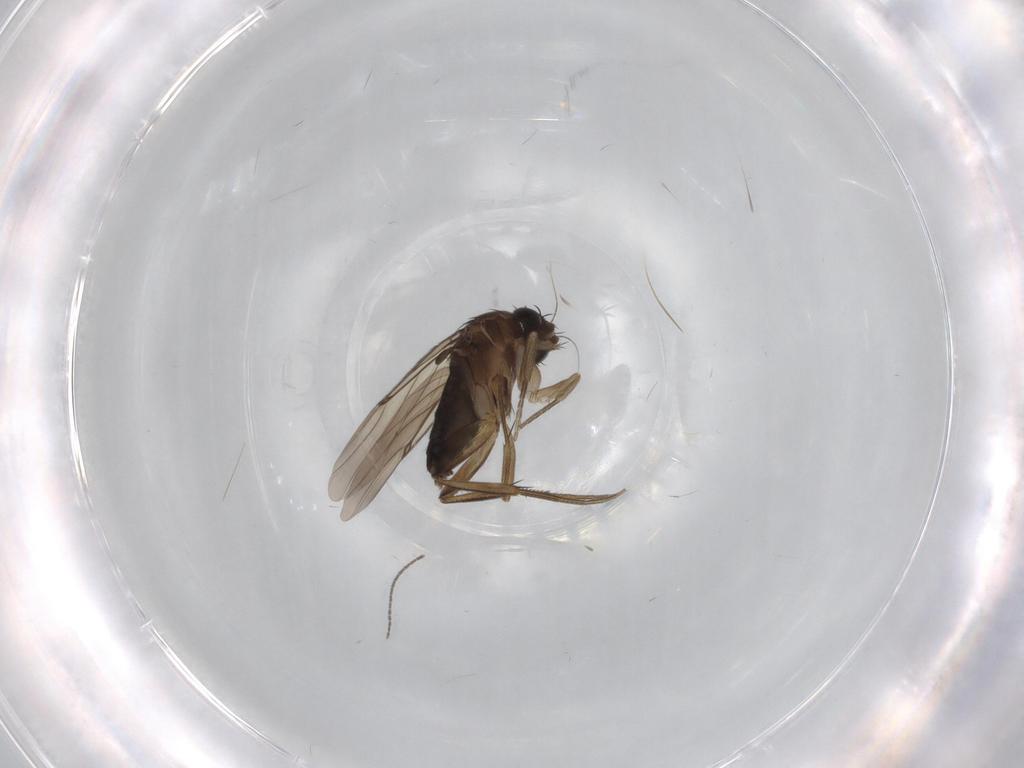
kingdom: Animalia
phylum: Arthropoda
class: Insecta
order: Diptera
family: Phoridae
